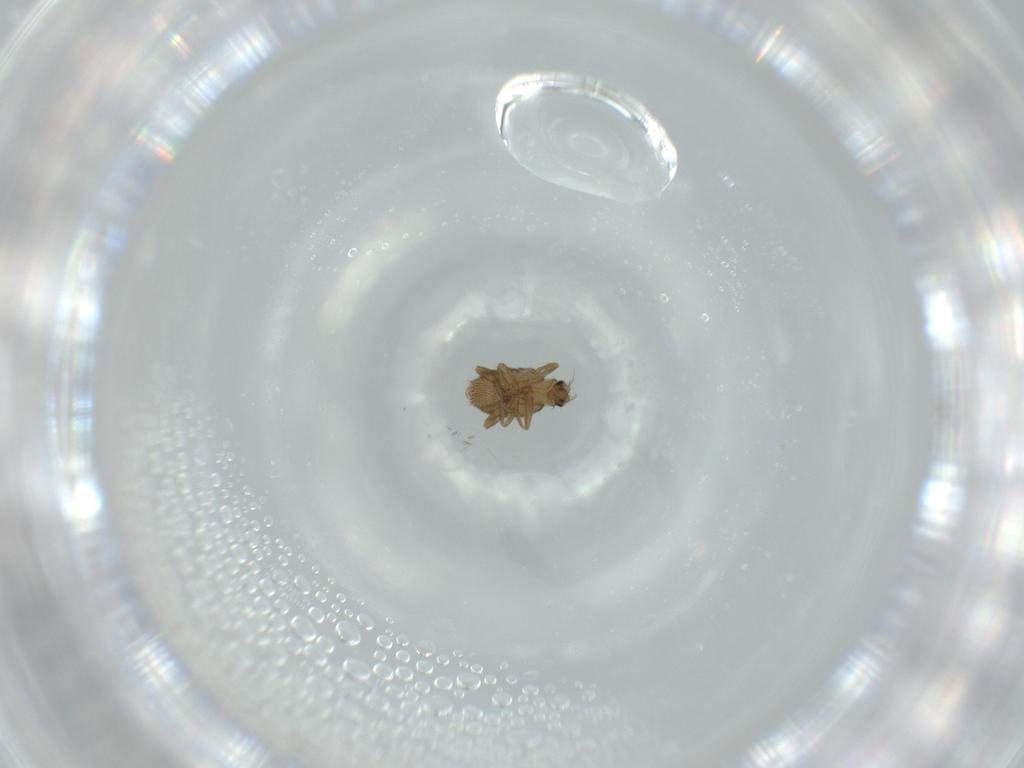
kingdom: Animalia
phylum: Arthropoda
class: Insecta
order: Diptera
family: Phoridae
